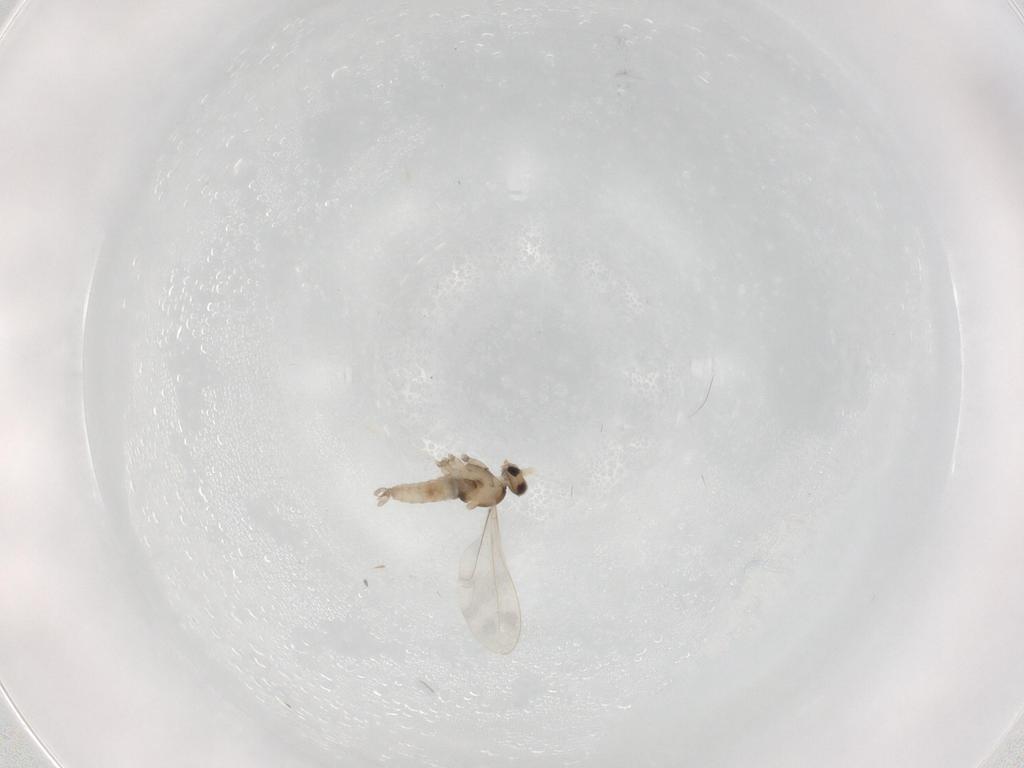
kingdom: Animalia
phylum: Arthropoda
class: Insecta
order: Diptera
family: Cecidomyiidae
